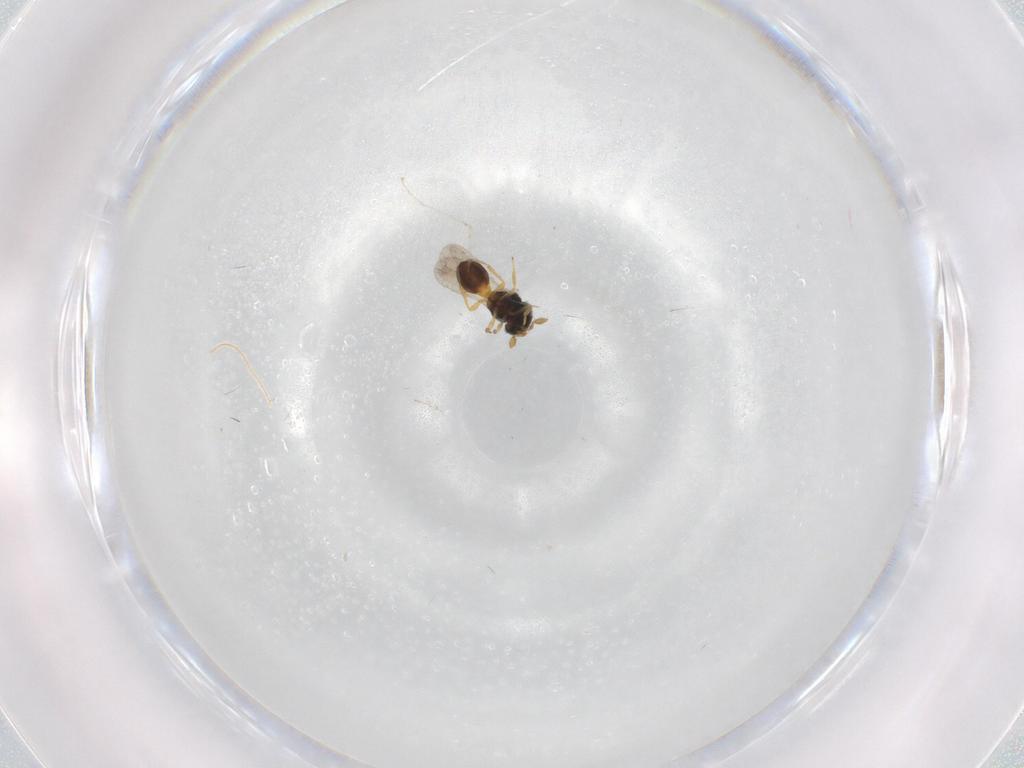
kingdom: Animalia
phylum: Arthropoda
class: Insecta
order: Hymenoptera
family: Scelionidae
